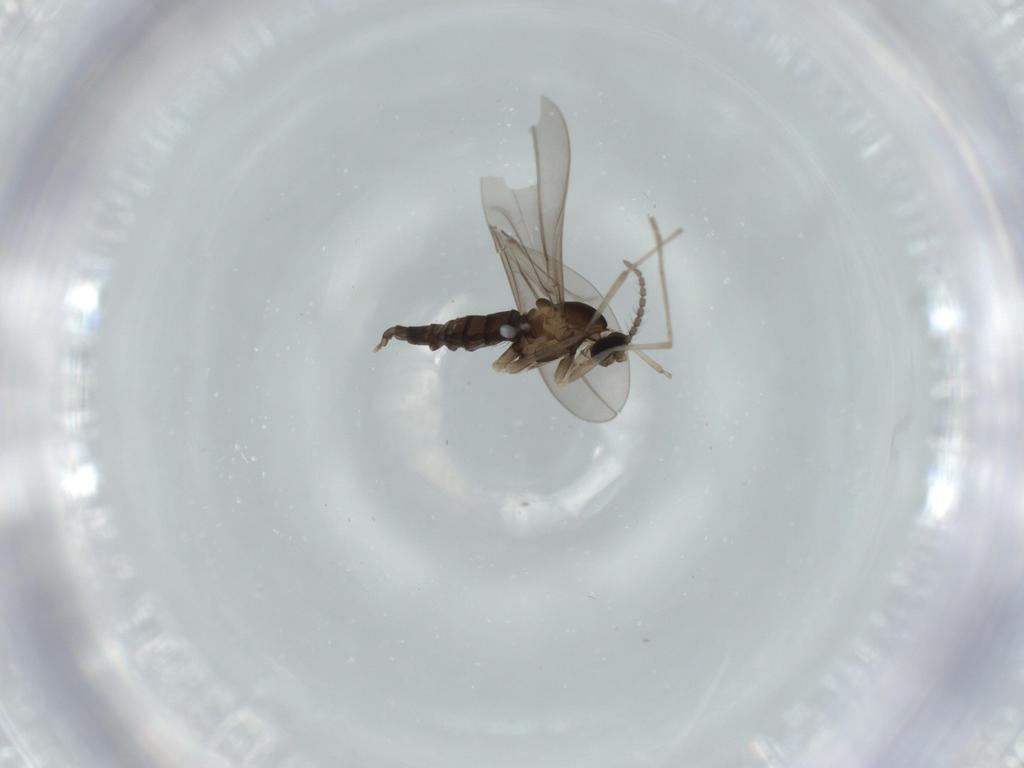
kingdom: Animalia
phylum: Arthropoda
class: Insecta
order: Diptera
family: Cecidomyiidae
